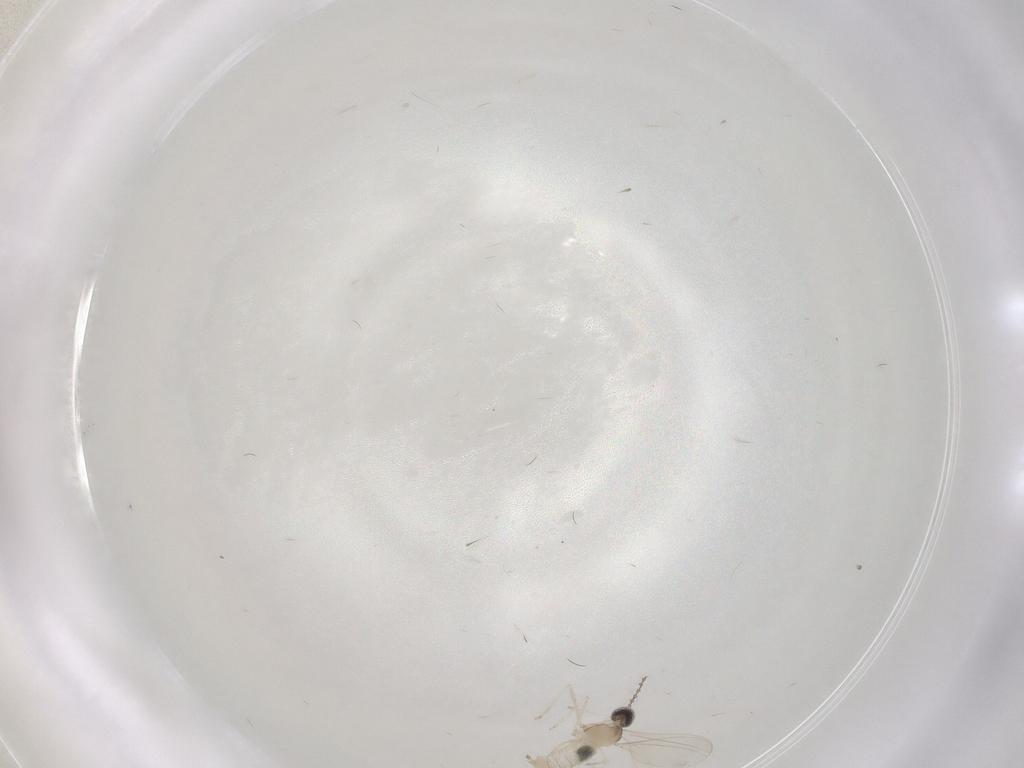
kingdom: Animalia
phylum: Arthropoda
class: Insecta
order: Diptera
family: Cecidomyiidae
